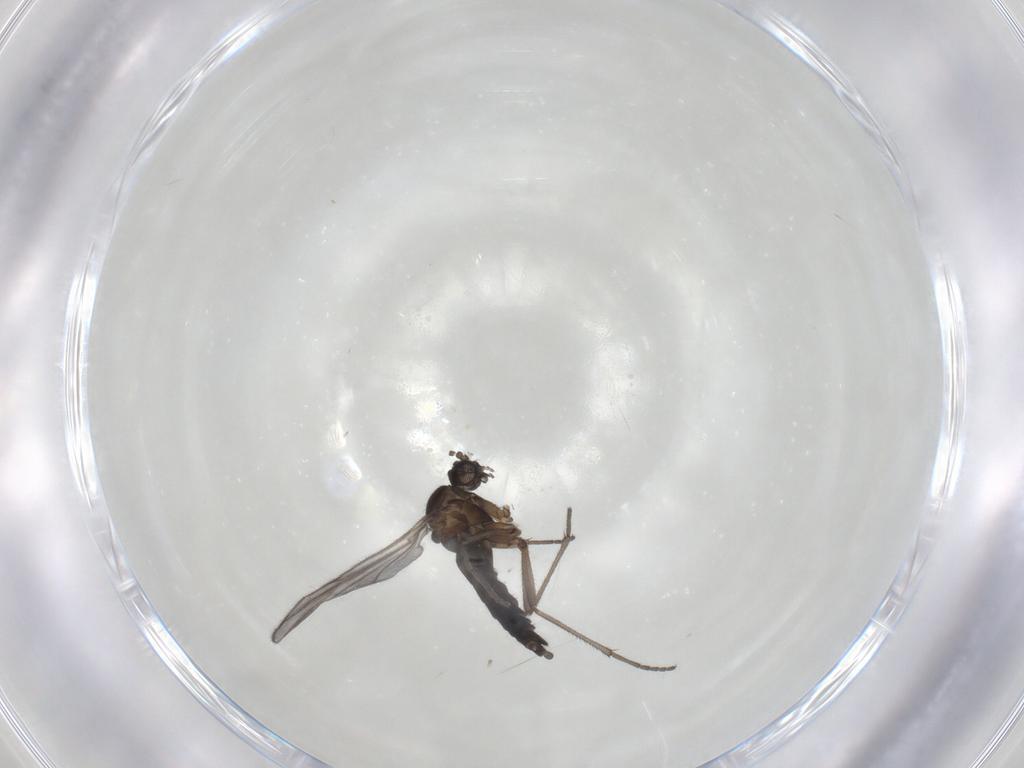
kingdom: Animalia
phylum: Arthropoda
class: Insecta
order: Diptera
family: Sciaridae
